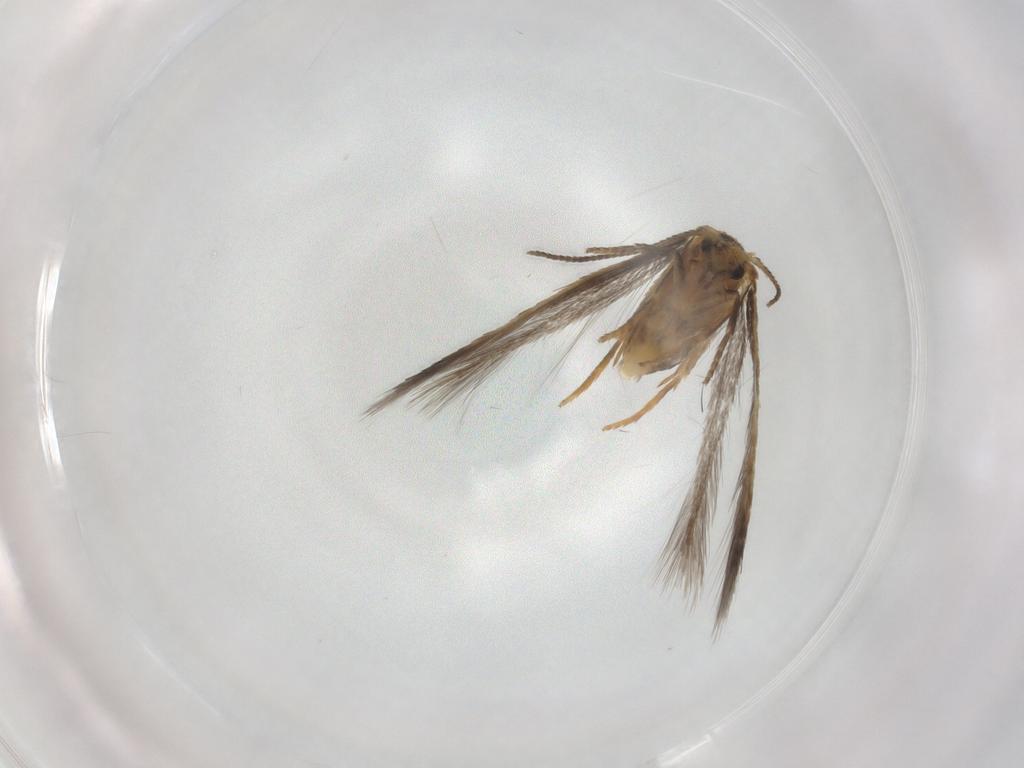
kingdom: Animalia
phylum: Arthropoda
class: Insecta
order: Lepidoptera
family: Nepticulidae
